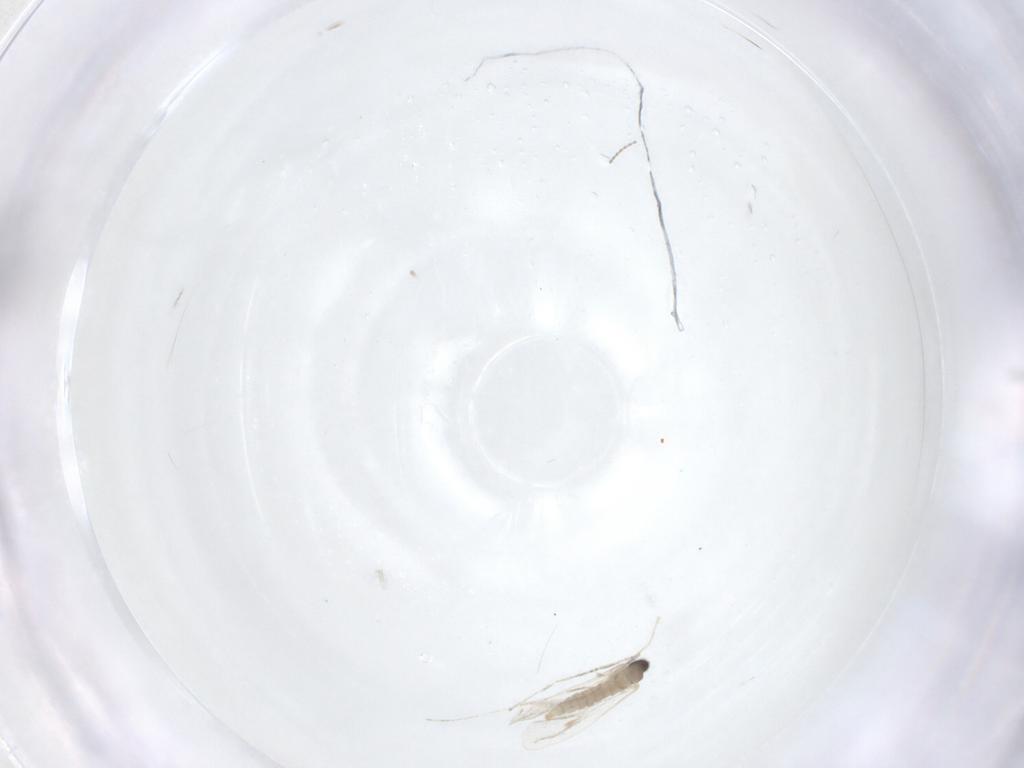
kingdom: Animalia
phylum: Arthropoda
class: Insecta
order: Diptera
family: Cecidomyiidae
